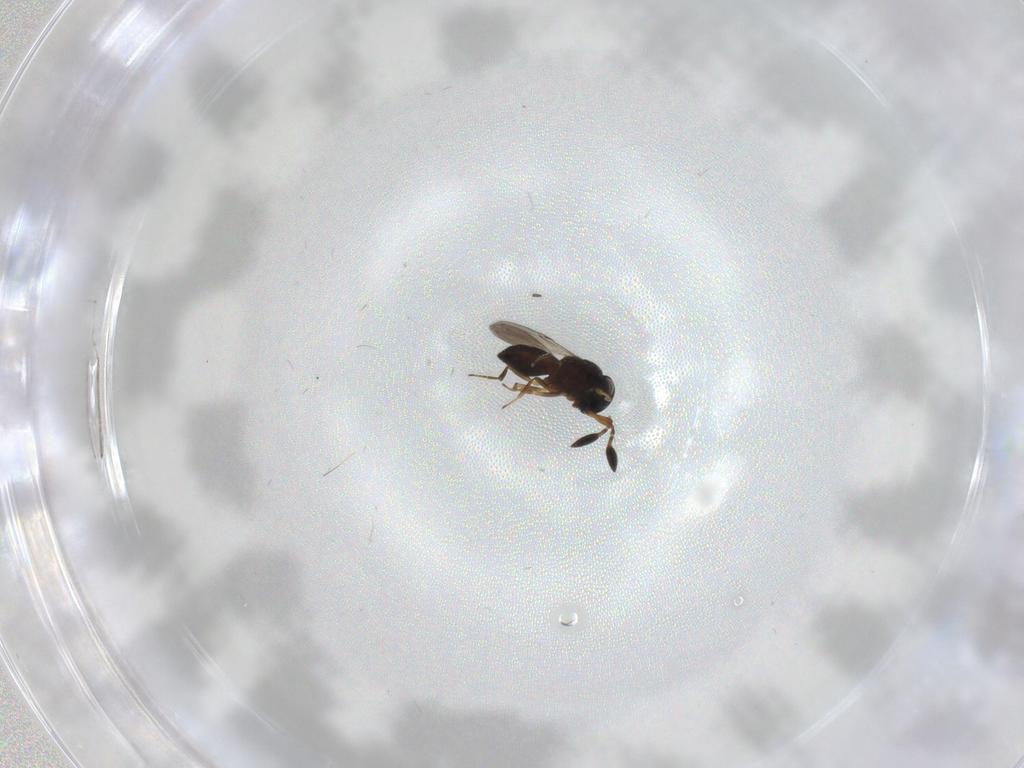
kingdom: Animalia
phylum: Arthropoda
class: Insecta
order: Hymenoptera
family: Scelionidae
